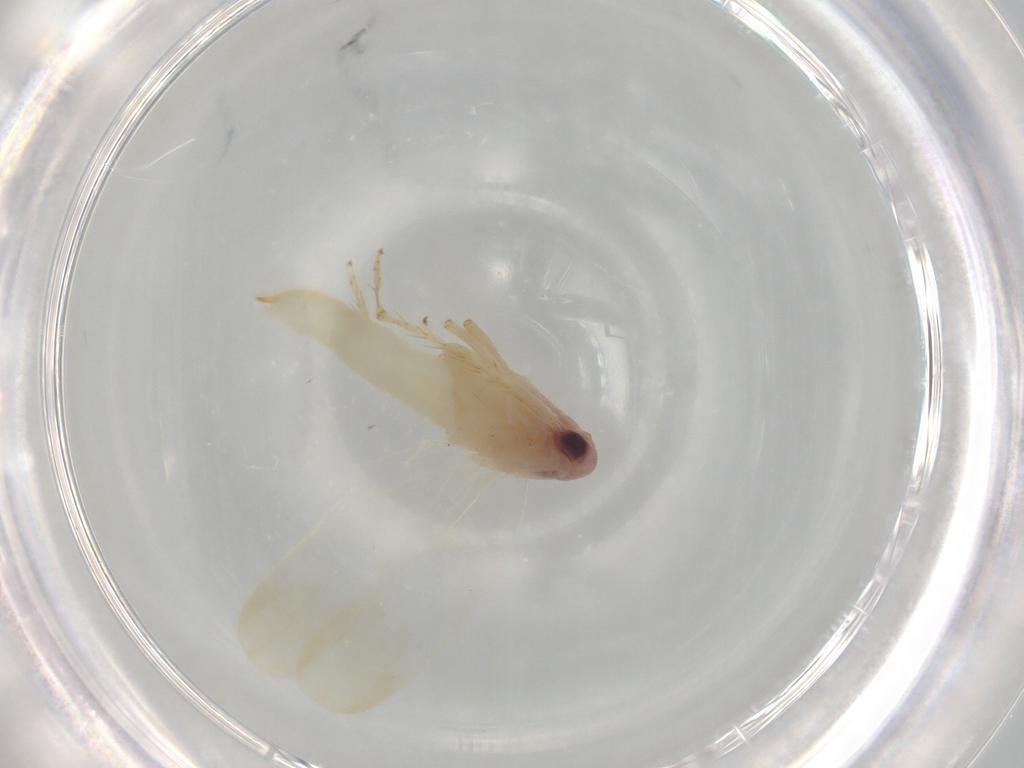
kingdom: Animalia
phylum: Arthropoda
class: Insecta
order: Hemiptera
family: Cicadellidae
